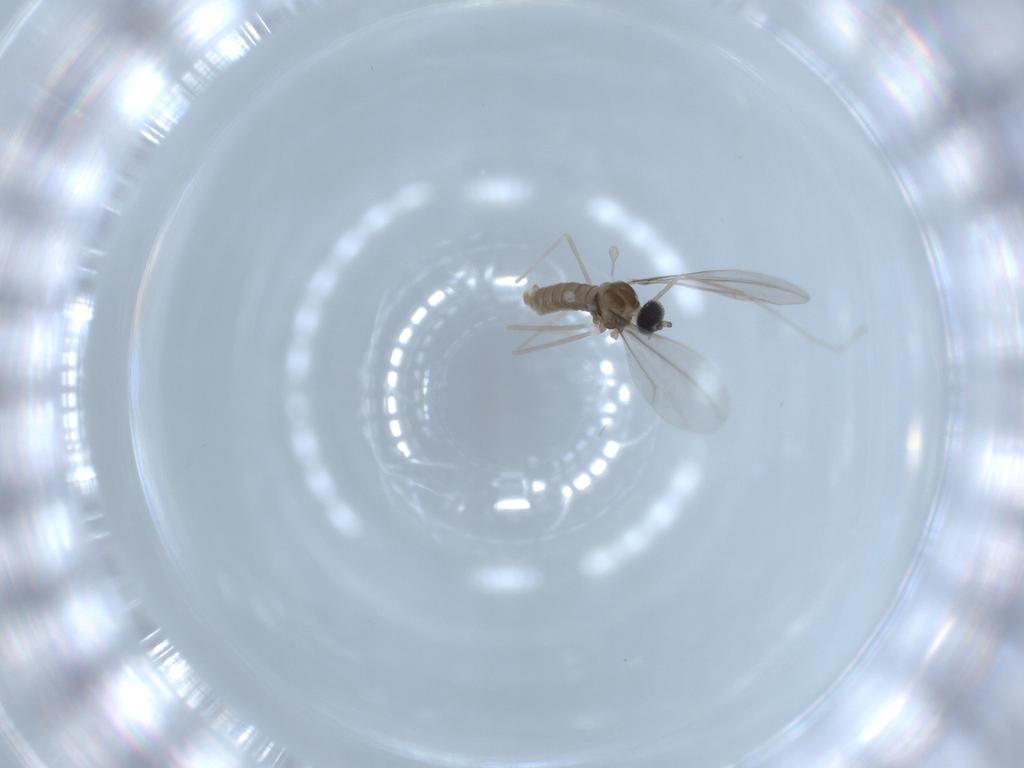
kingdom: Animalia
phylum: Arthropoda
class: Insecta
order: Diptera
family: Cecidomyiidae
